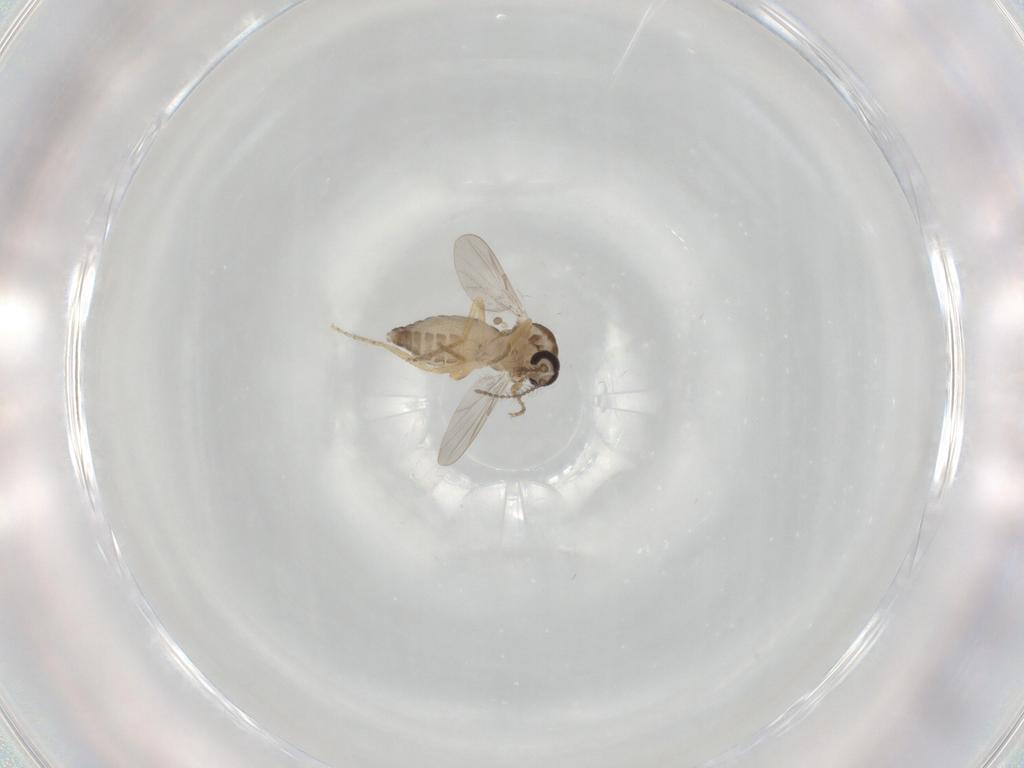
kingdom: Animalia
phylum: Arthropoda
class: Insecta
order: Diptera
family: Ceratopogonidae
